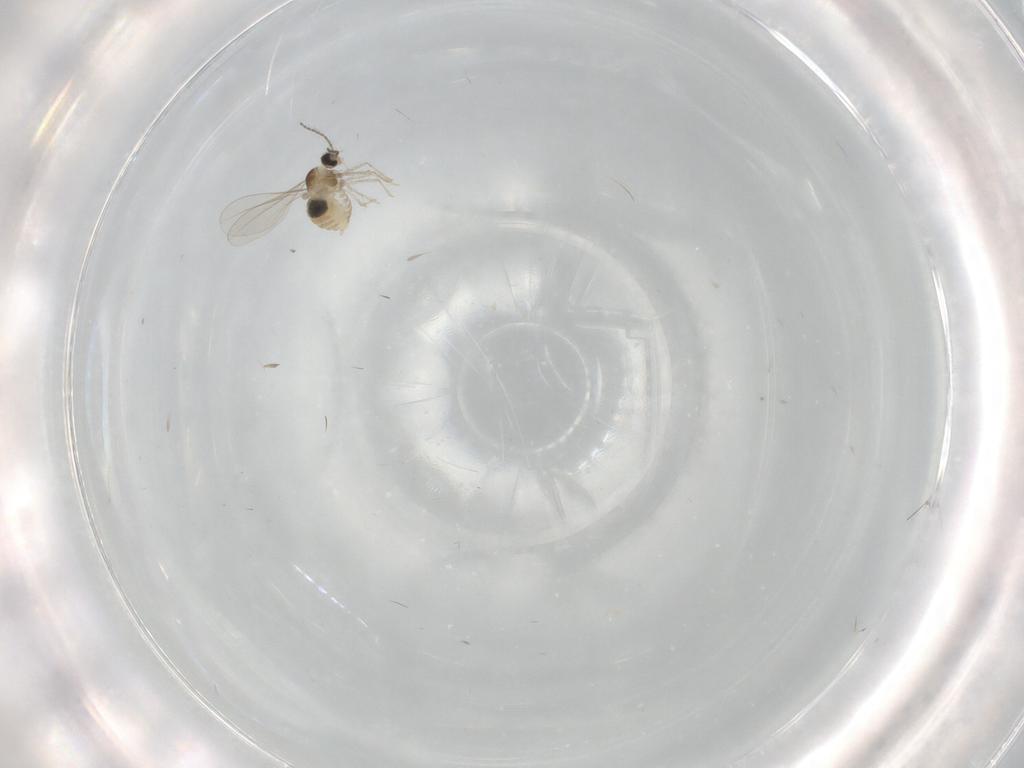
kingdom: Animalia
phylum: Arthropoda
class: Insecta
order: Diptera
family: Cecidomyiidae
